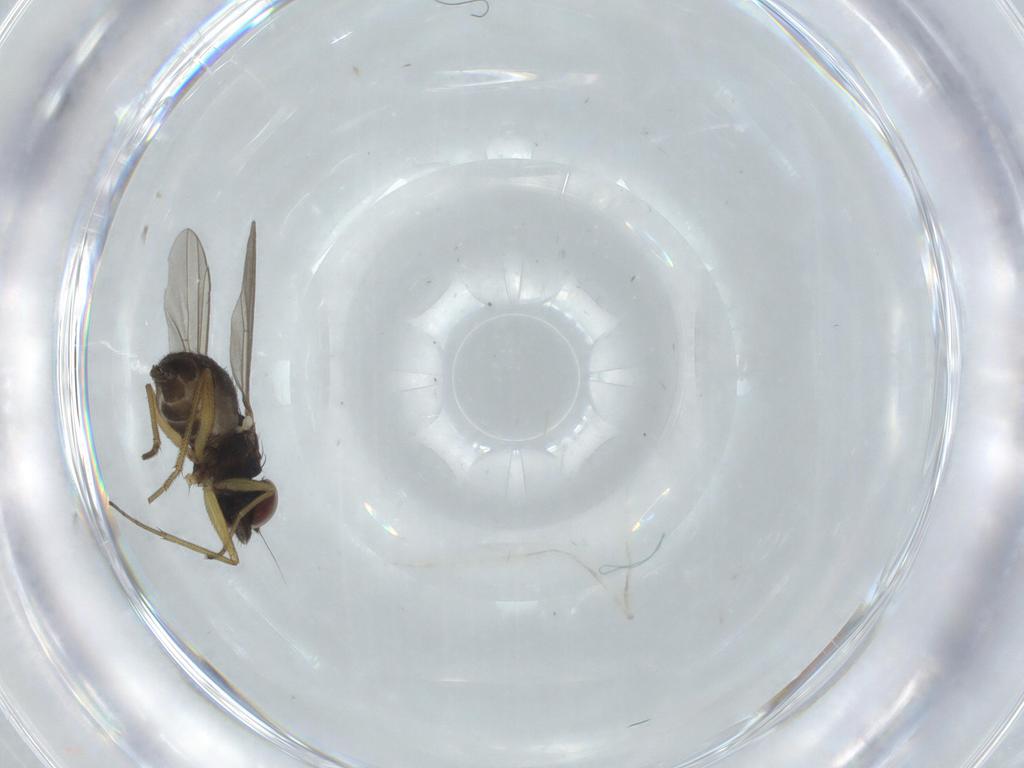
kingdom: Animalia
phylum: Arthropoda
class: Insecta
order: Diptera
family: Dolichopodidae
